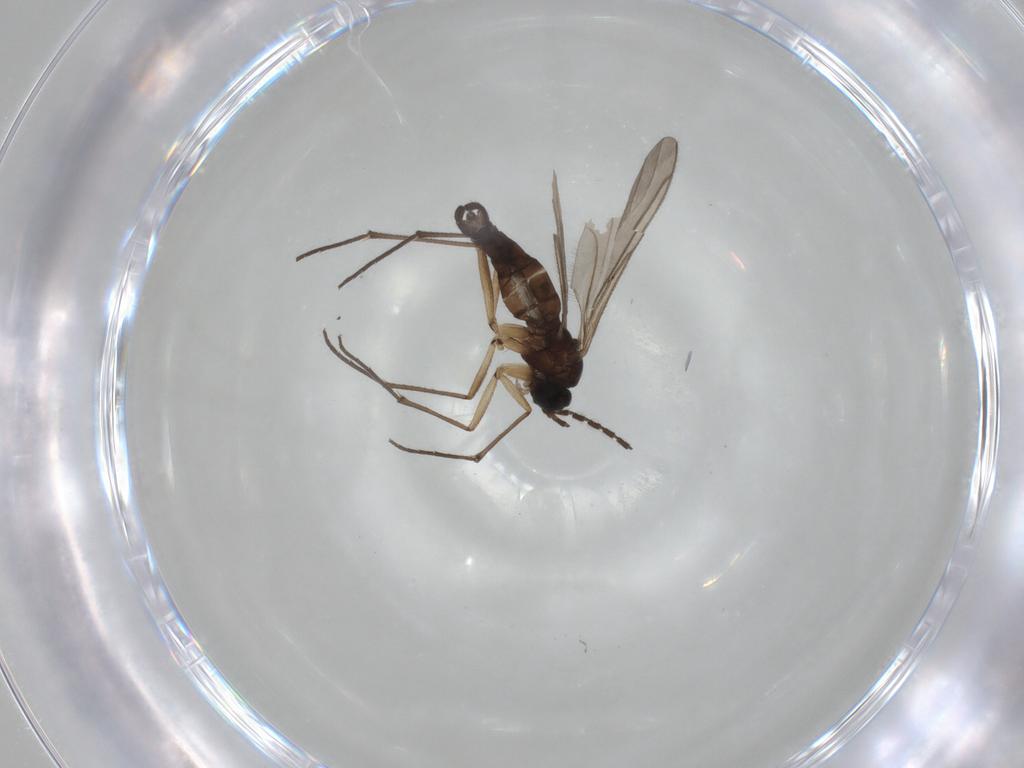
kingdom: Animalia
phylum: Arthropoda
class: Insecta
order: Diptera
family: Sciaridae
